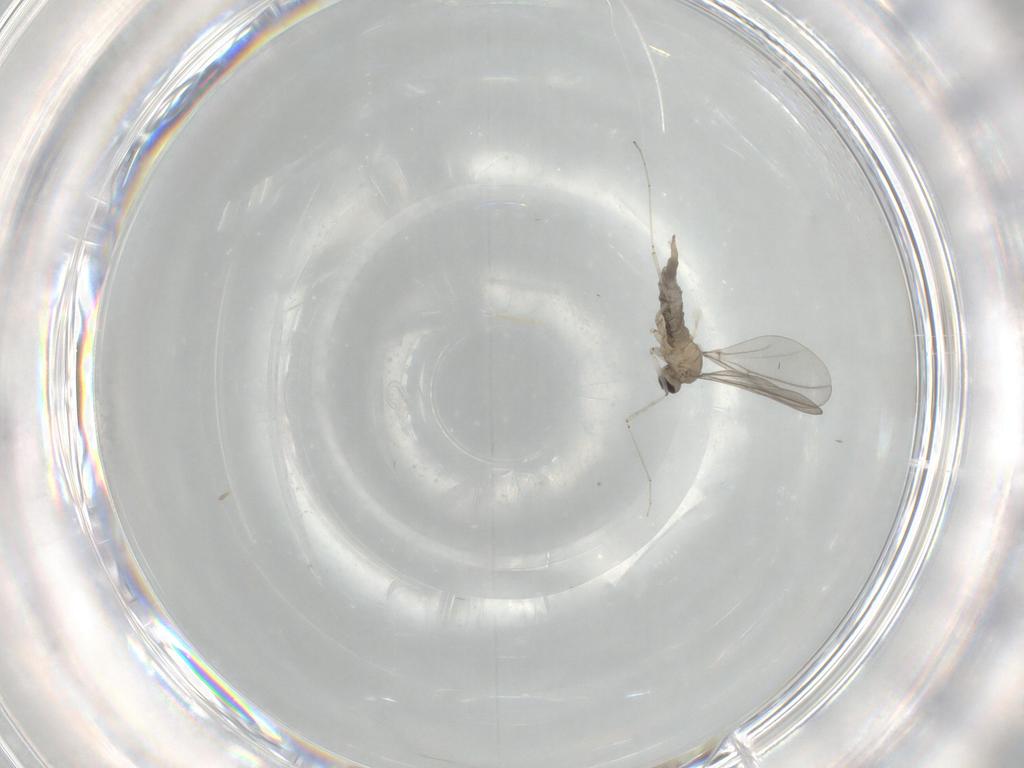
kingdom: Animalia
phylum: Arthropoda
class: Insecta
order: Diptera
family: Cecidomyiidae
